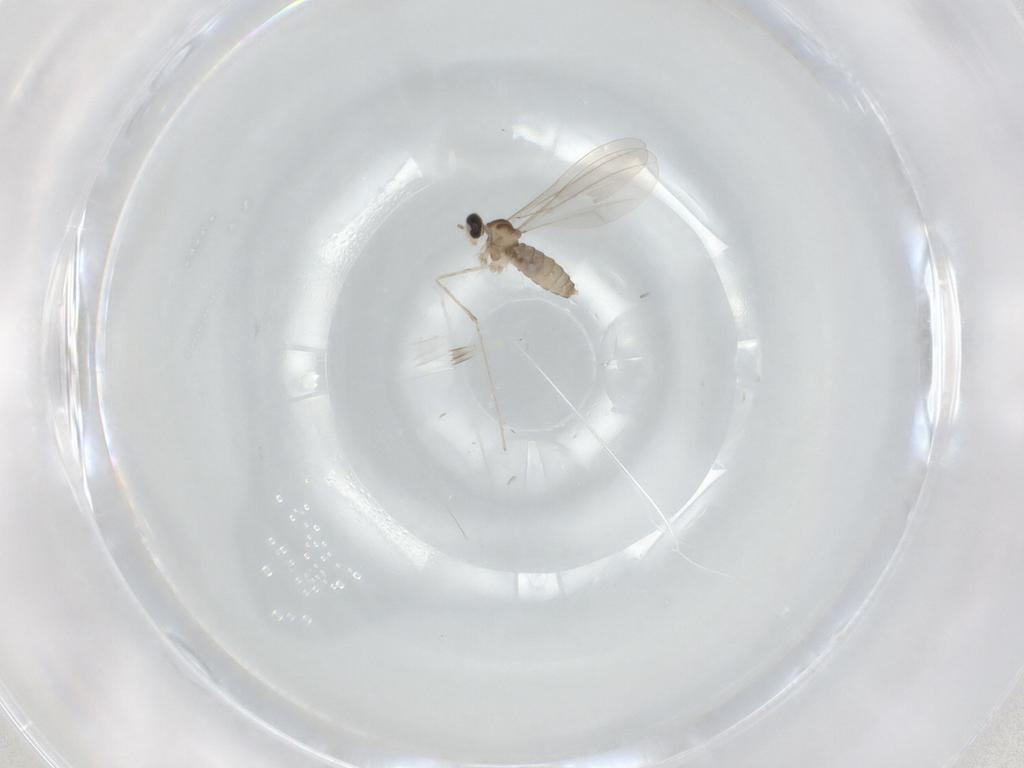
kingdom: Animalia
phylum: Arthropoda
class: Insecta
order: Diptera
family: Cecidomyiidae
